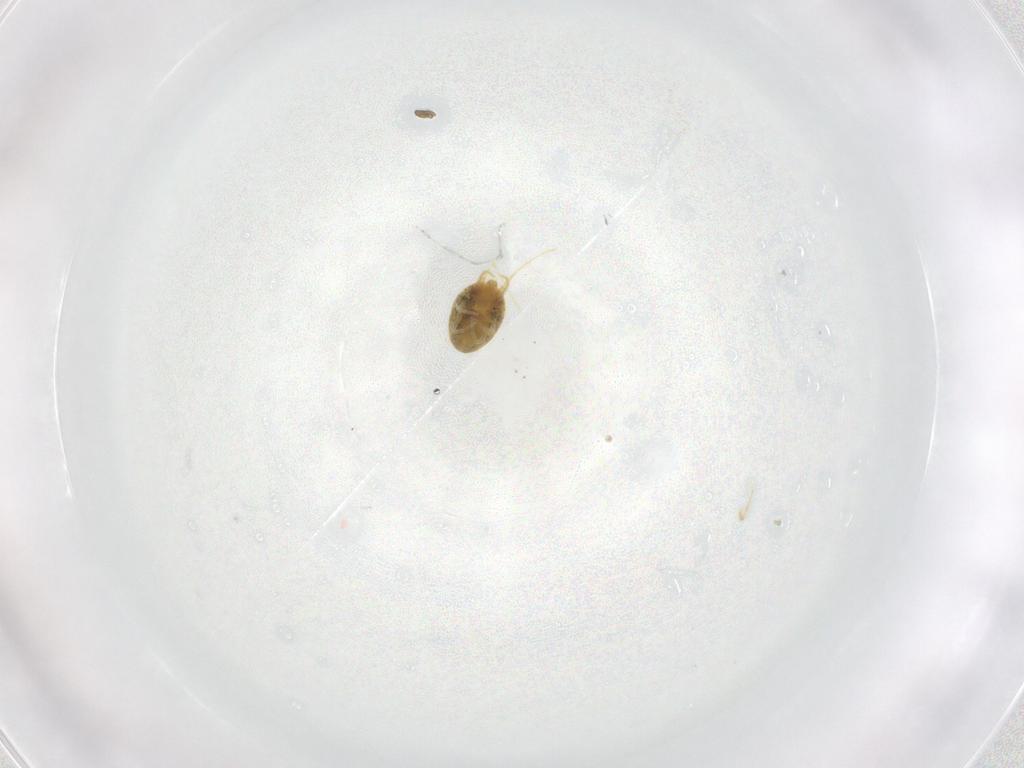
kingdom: Animalia
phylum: Arthropoda
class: Arachnida
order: Trombidiformes
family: Tetranychidae
